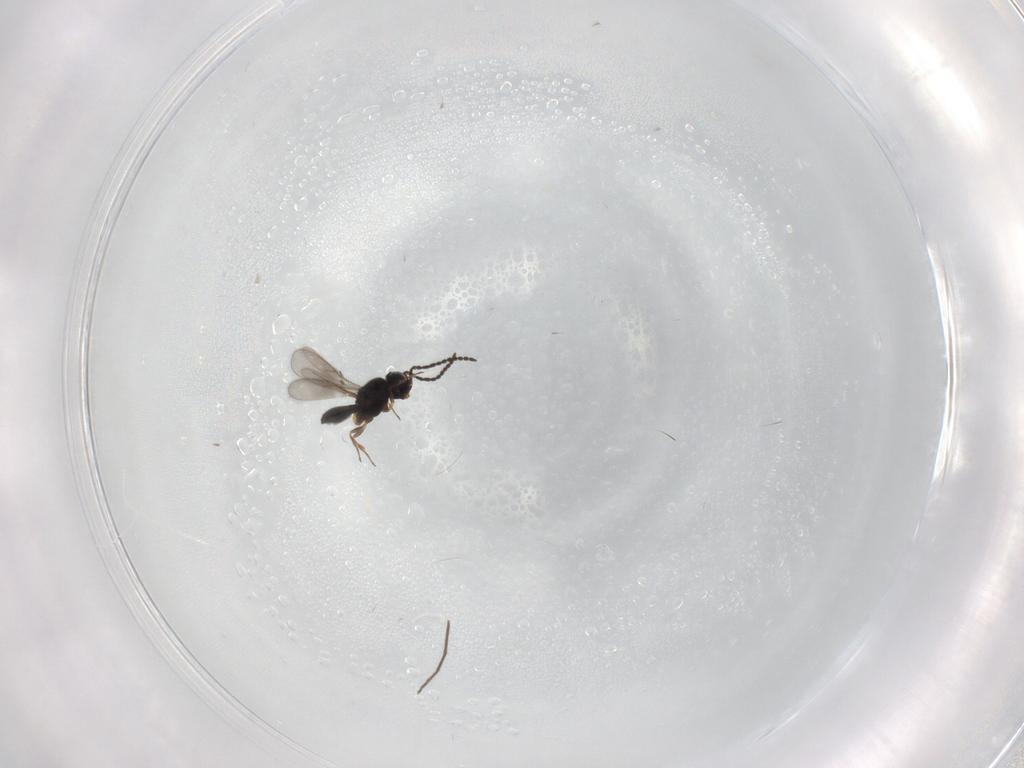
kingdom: Animalia
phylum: Arthropoda
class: Insecta
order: Hymenoptera
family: Scelionidae
